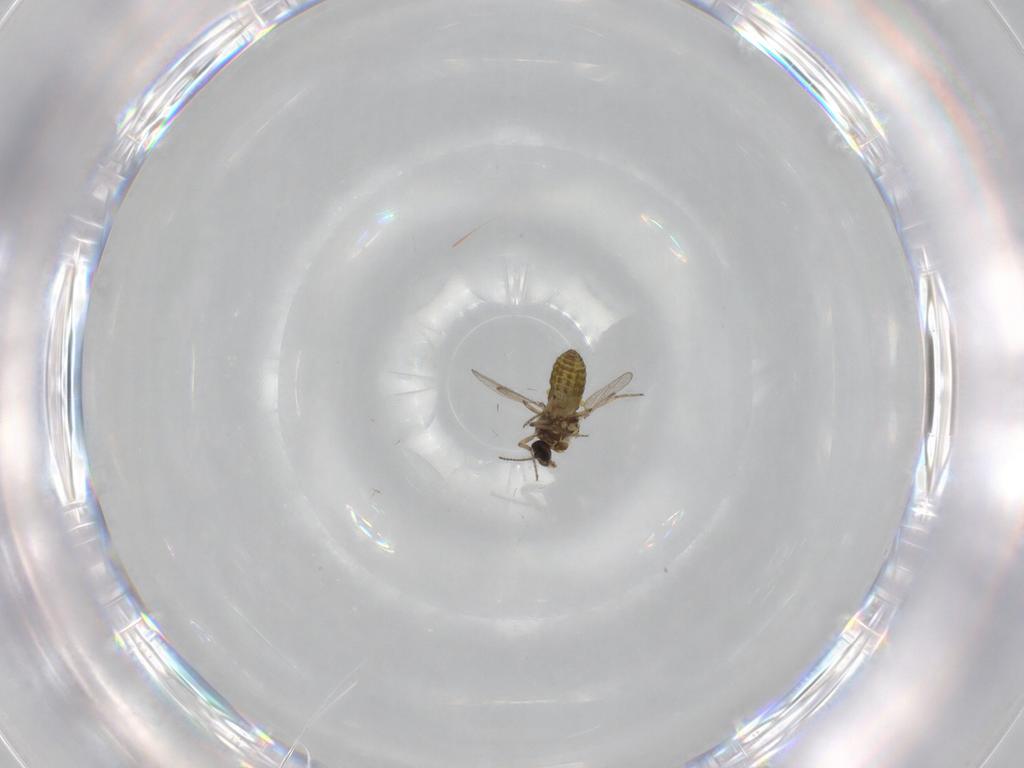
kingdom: Animalia
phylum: Arthropoda
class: Insecta
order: Diptera
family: Ceratopogonidae
